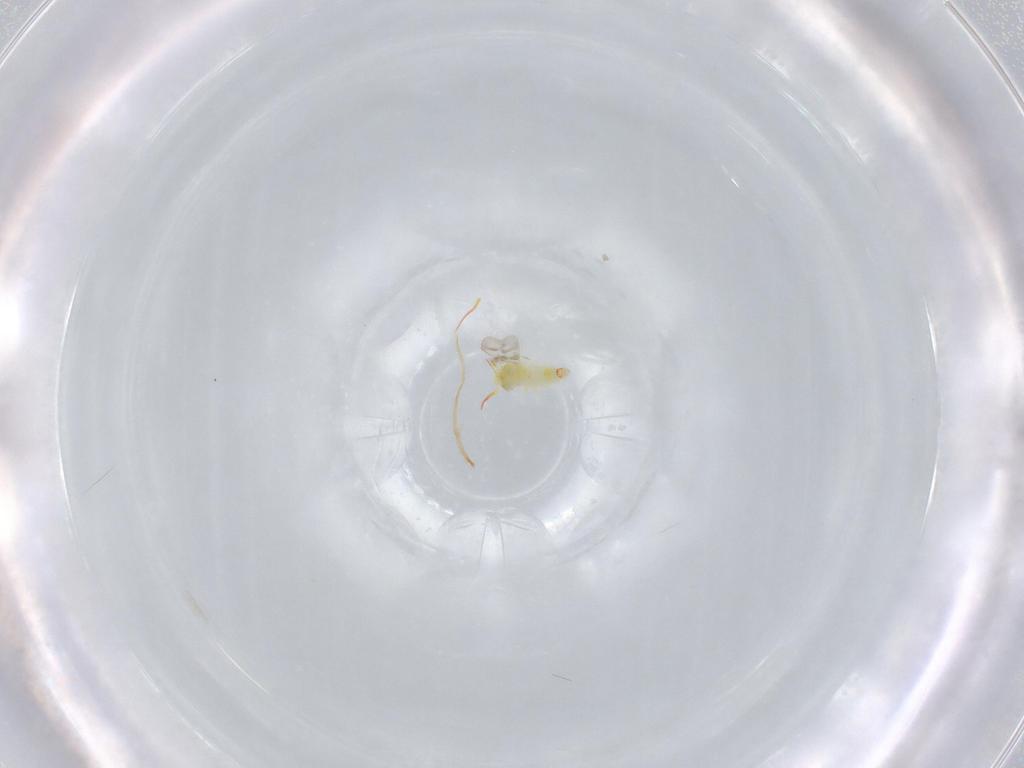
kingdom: Animalia
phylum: Arthropoda
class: Insecta
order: Hemiptera
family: Aleyrodidae
